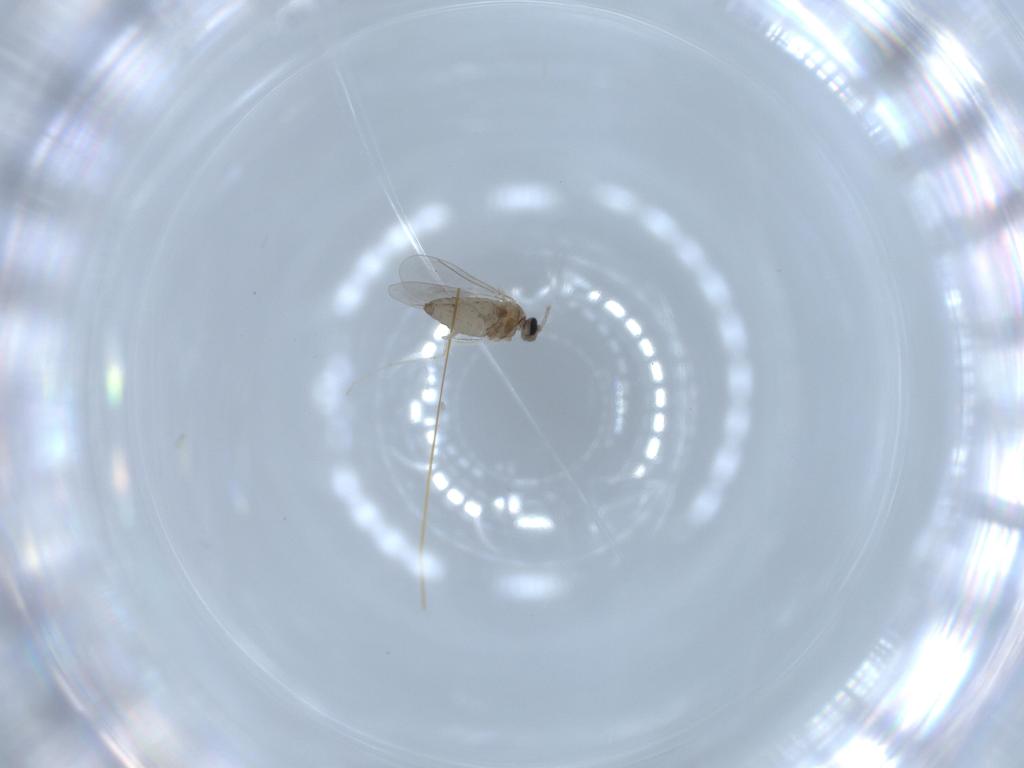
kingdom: Animalia
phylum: Arthropoda
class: Insecta
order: Diptera
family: Cecidomyiidae
